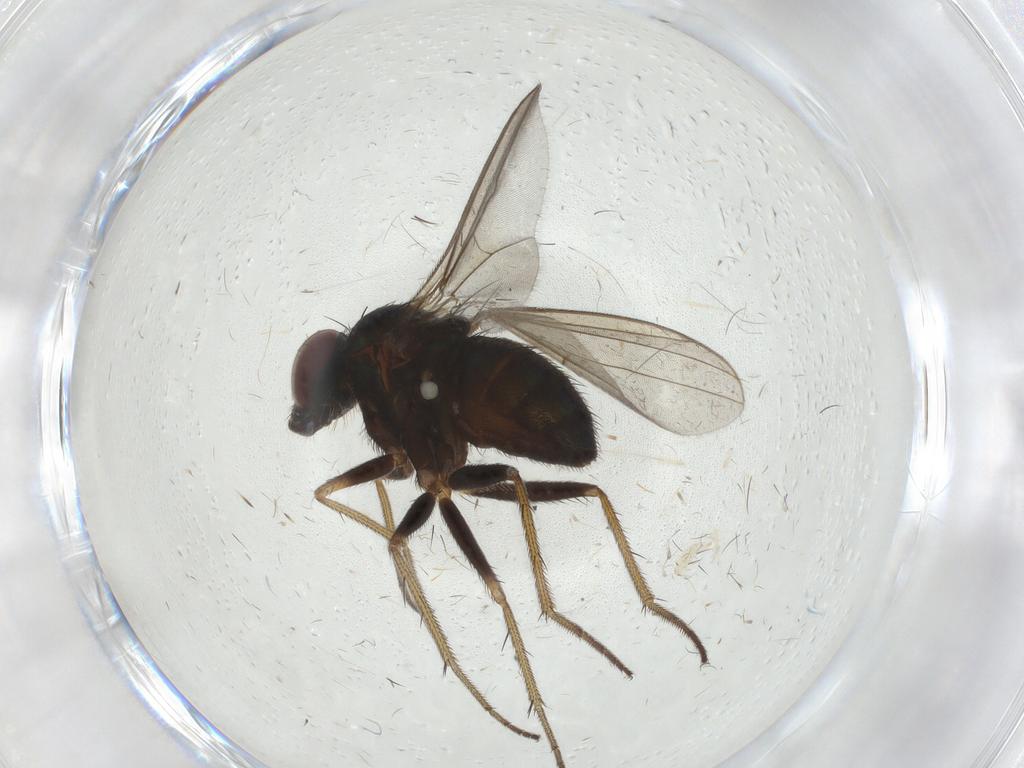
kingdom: Animalia
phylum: Arthropoda
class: Insecta
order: Diptera
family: Dolichopodidae
